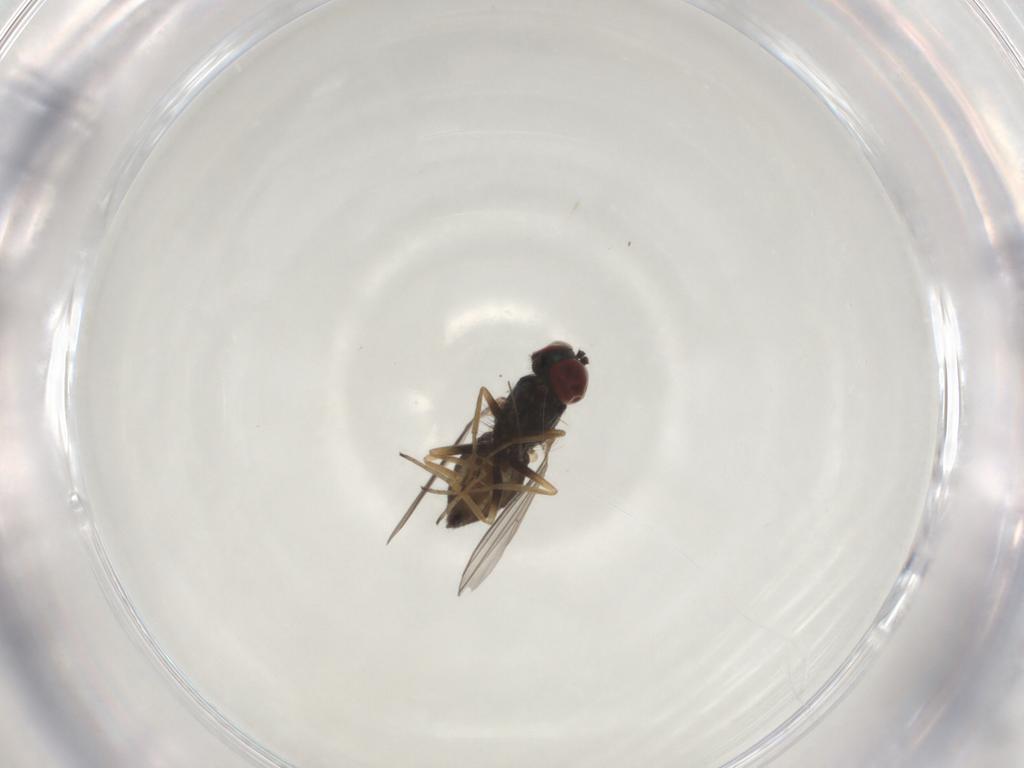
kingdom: Animalia
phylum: Arthropoda
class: Insecta
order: Diptera
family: Dolichopodidae
